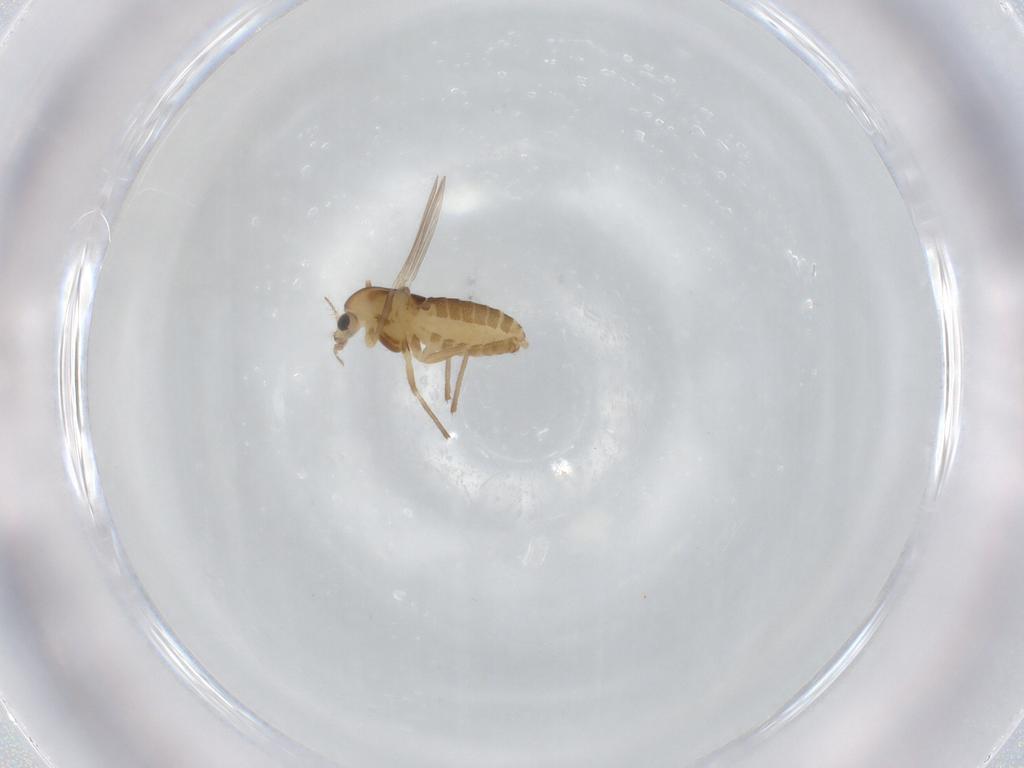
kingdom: Animalia
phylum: Arthropoda
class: Insecta
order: Diptera
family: Chironomidae
